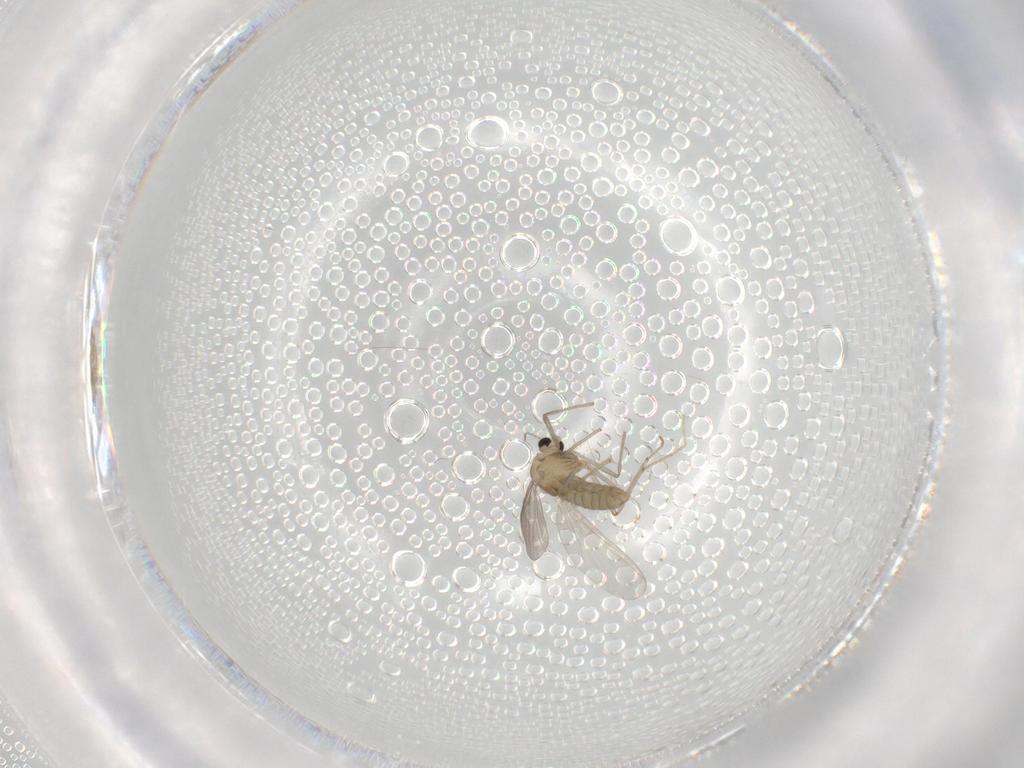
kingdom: Animalia
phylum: Arthropoda
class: Insecta
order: Diptera
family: Chironomidae
